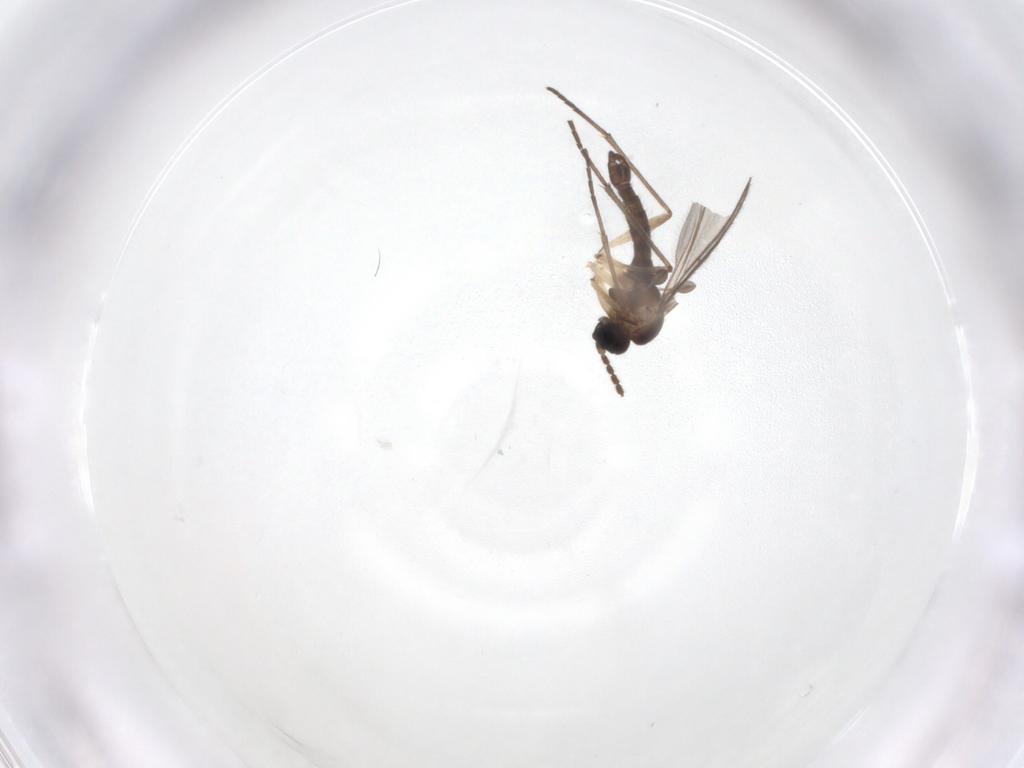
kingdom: Animalia
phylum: Arthropoda
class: Insecta
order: Diptera
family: Sciaridae
